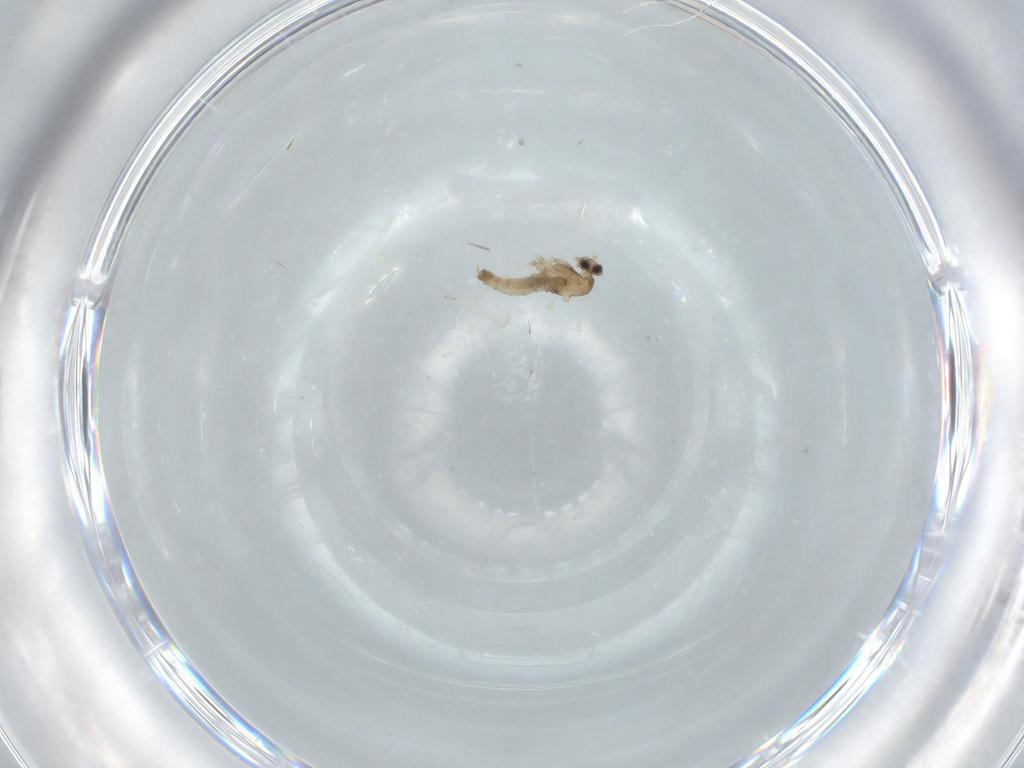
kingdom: Animalia
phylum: Arthropoda
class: Insecta
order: Diptera
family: Cecidomyiidae
